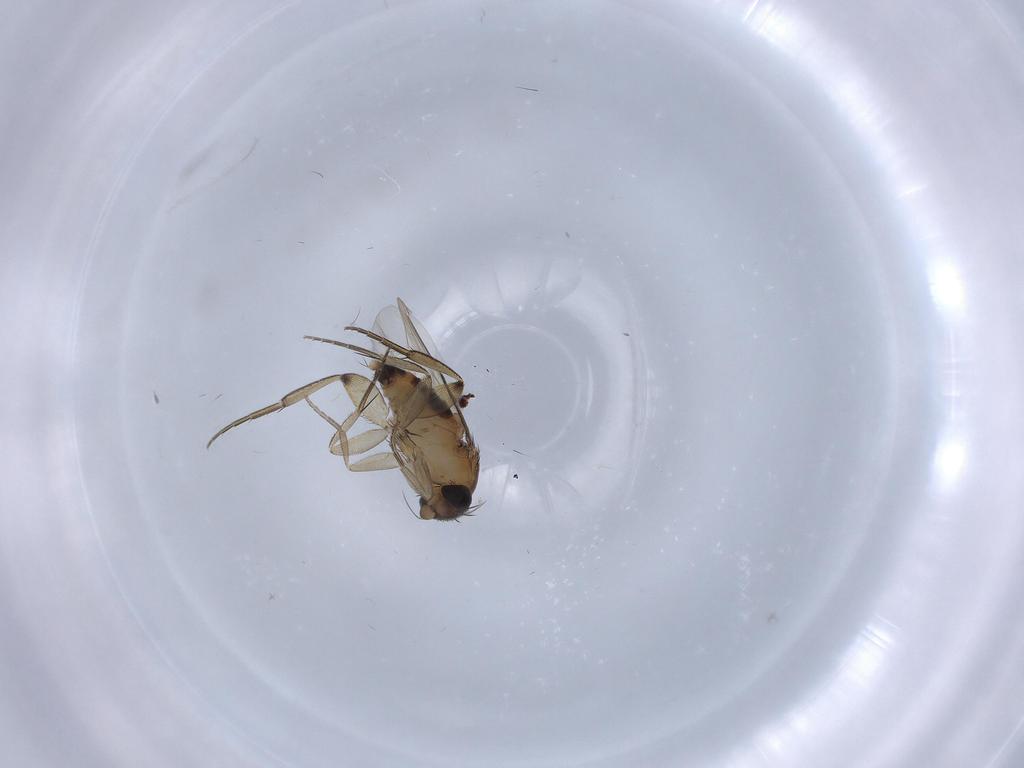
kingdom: Animalia
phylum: Arthropoda
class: Insecta
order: Diptera
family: Phoridae
